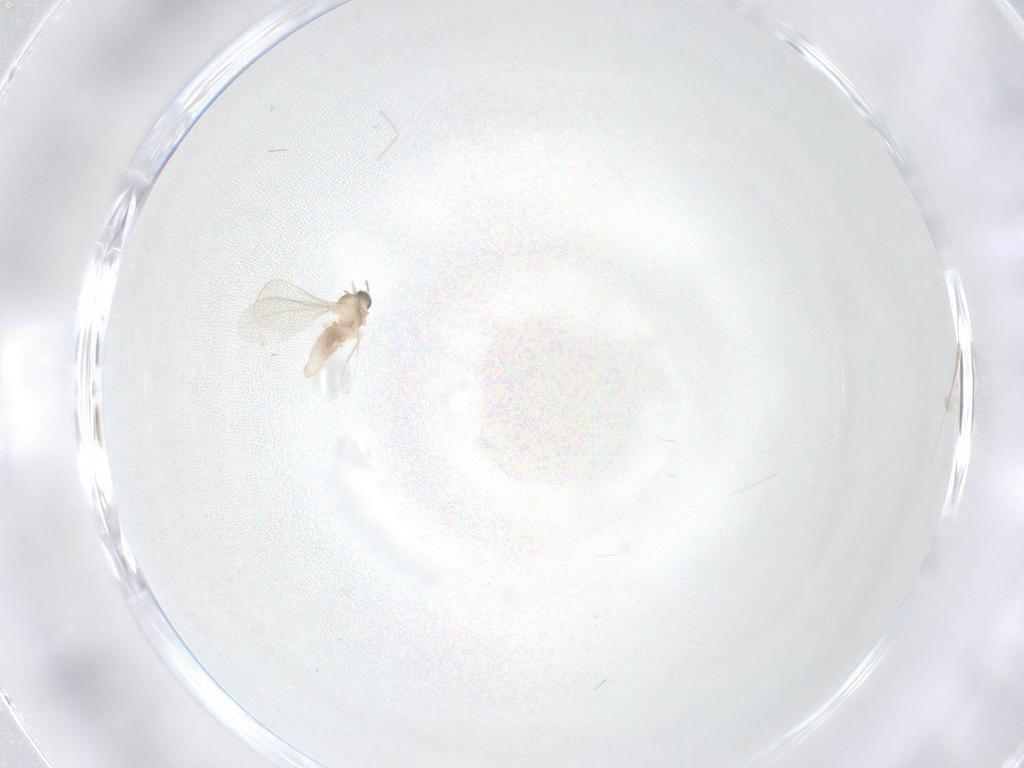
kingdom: Animalia
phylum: Arthropoda
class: Insecta
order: Diptera
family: Cecidomyiidae
